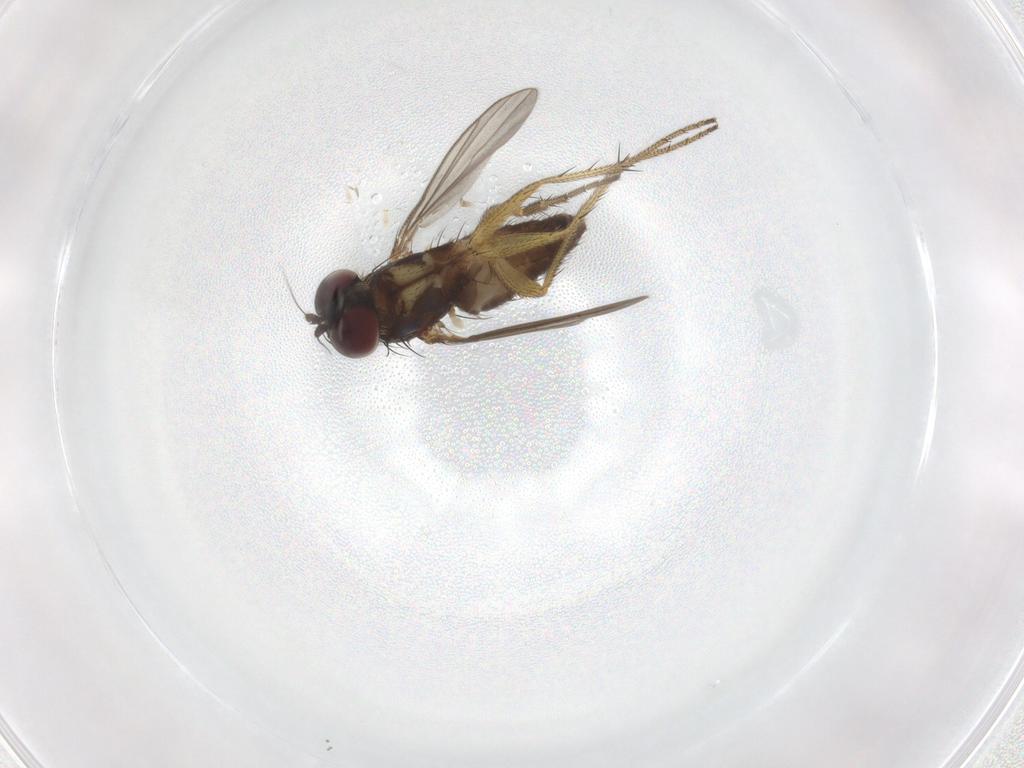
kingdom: Animalia
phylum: Arthropoda
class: Insecta
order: Diptera
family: Dolichopodidae
